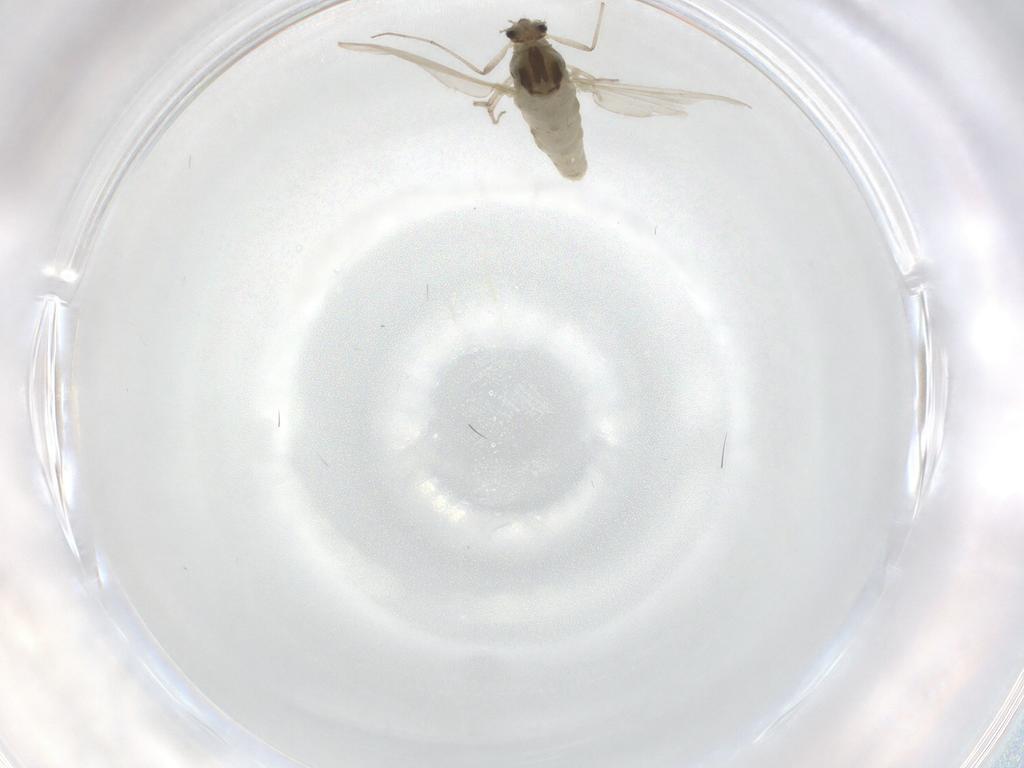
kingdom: Animalia
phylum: Arthropoda
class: Insecta
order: Diptera
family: Chironomidae
